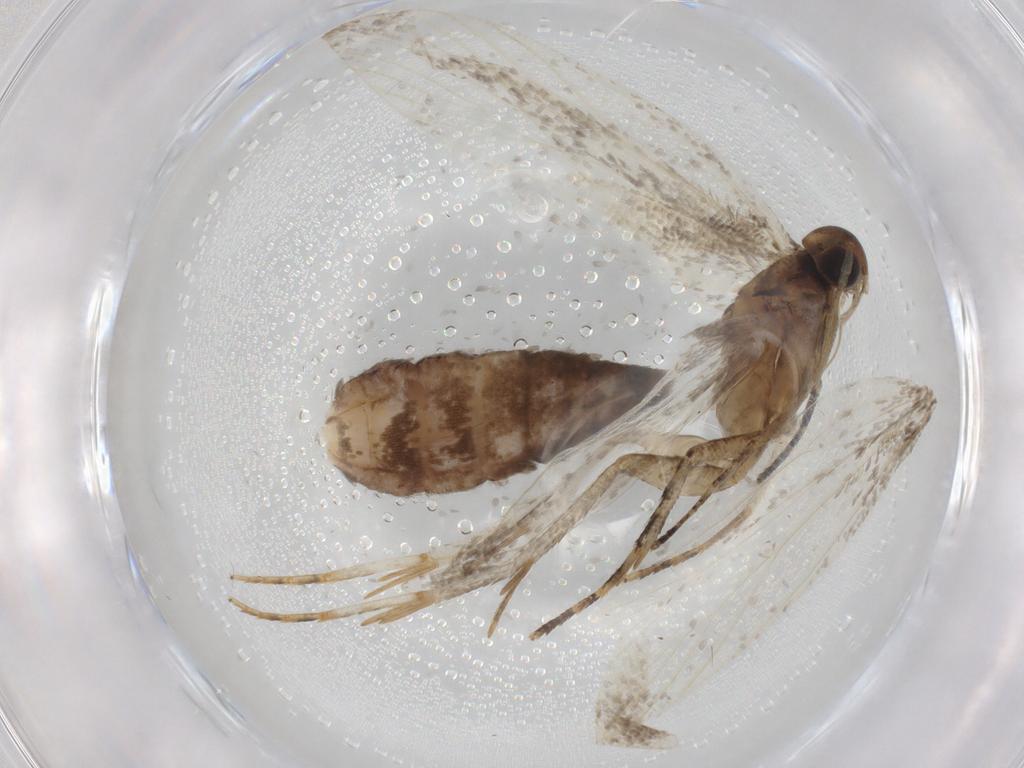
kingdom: Animalia
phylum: Arthropoda
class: Insecta
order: Lepidoptera
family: Gelechiidae
